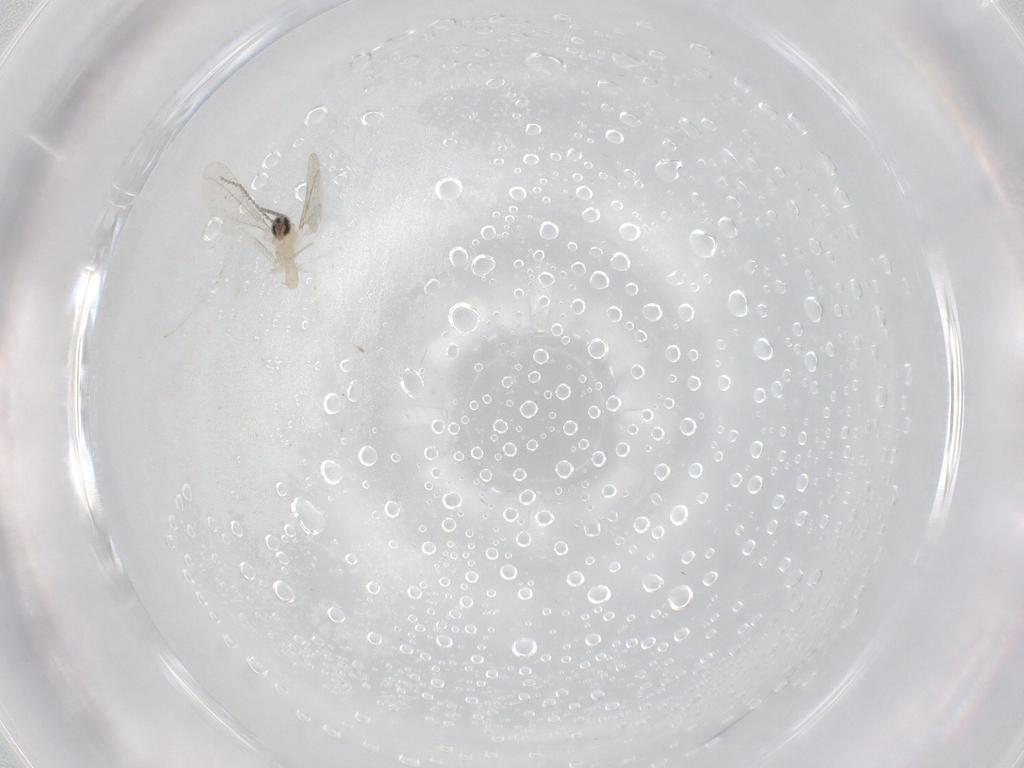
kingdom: Animalia
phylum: Arthropoda
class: Insecta
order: Diptera
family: Psychodidae
